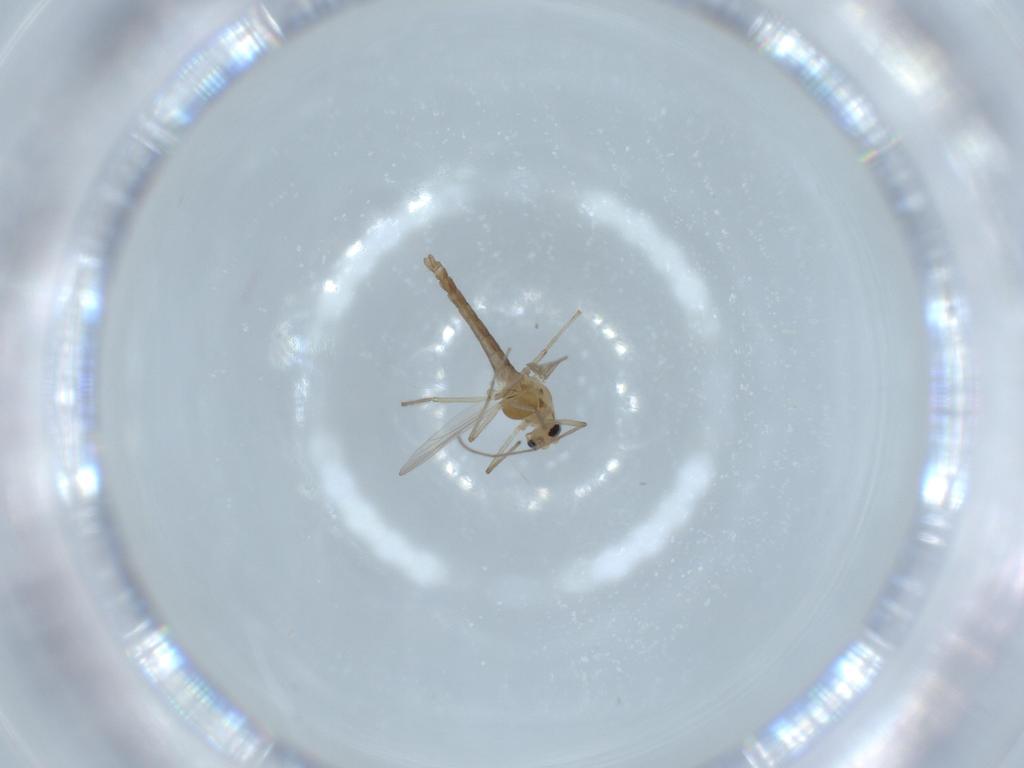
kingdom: Animalia
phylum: Arthropoda
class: Insecta
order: Diptera
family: Chironomidae
